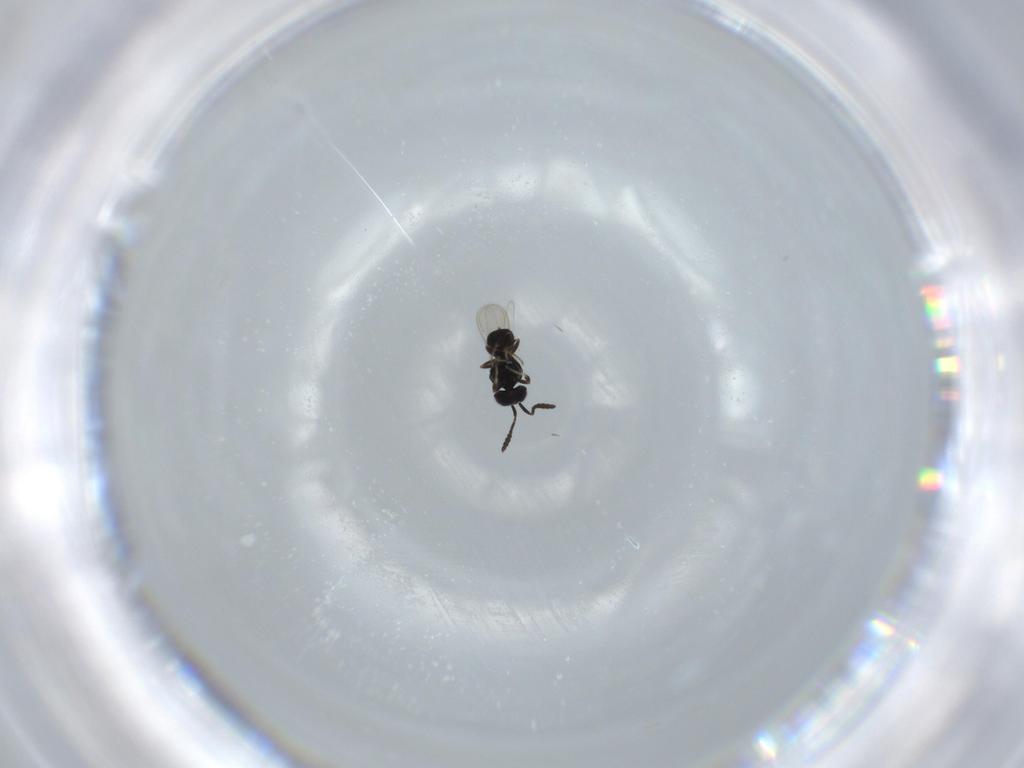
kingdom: Animalia
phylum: Arthropoda
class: Insecta
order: Hymenoptera
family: Scelionidae
